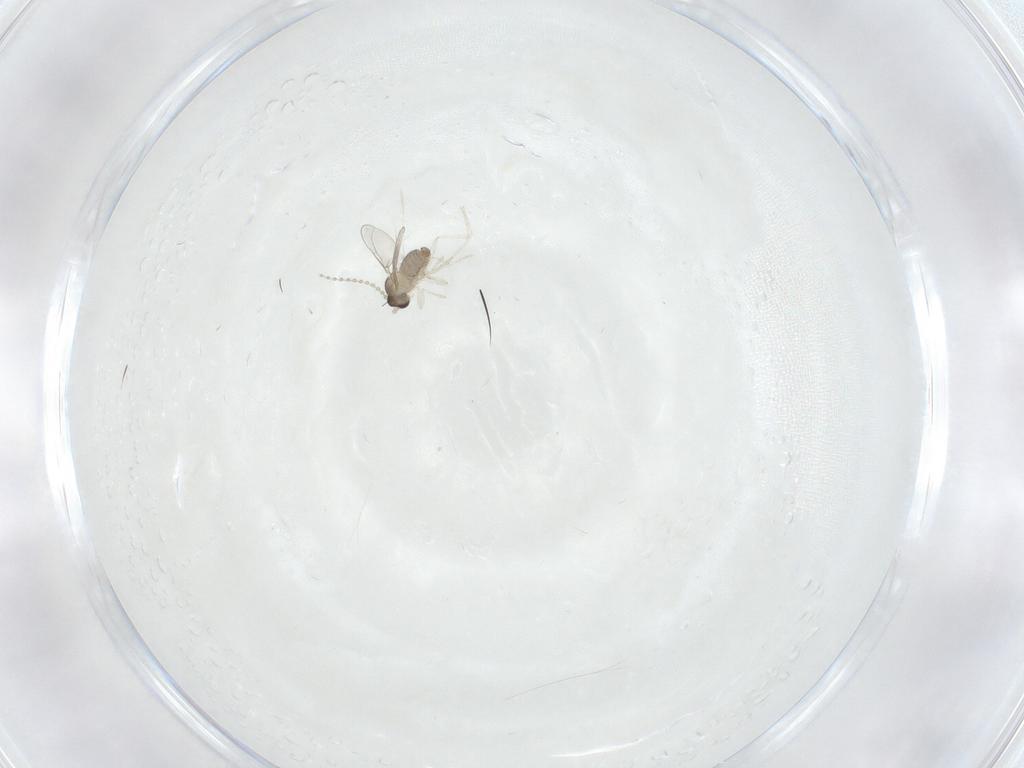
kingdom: Animalia
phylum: Arthropoda
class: Insecta
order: Diptera
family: Cecidomyiidae
